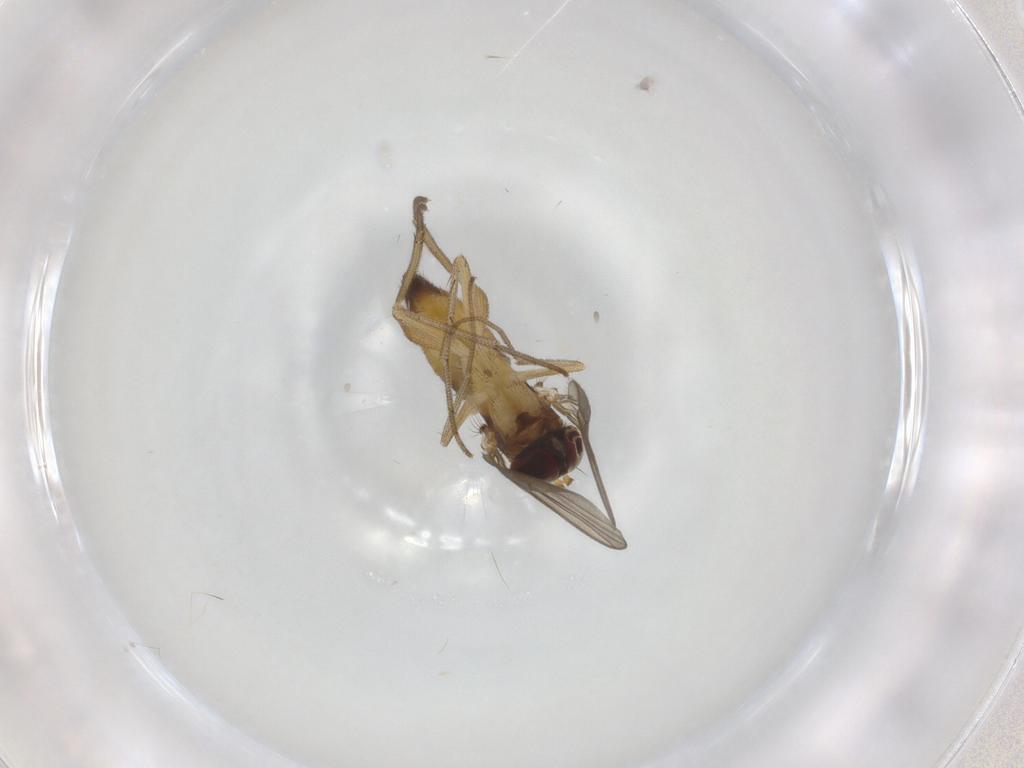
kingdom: Animalia
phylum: Arthropoda
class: Insecta
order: Diptera
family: Dolichopodidae
